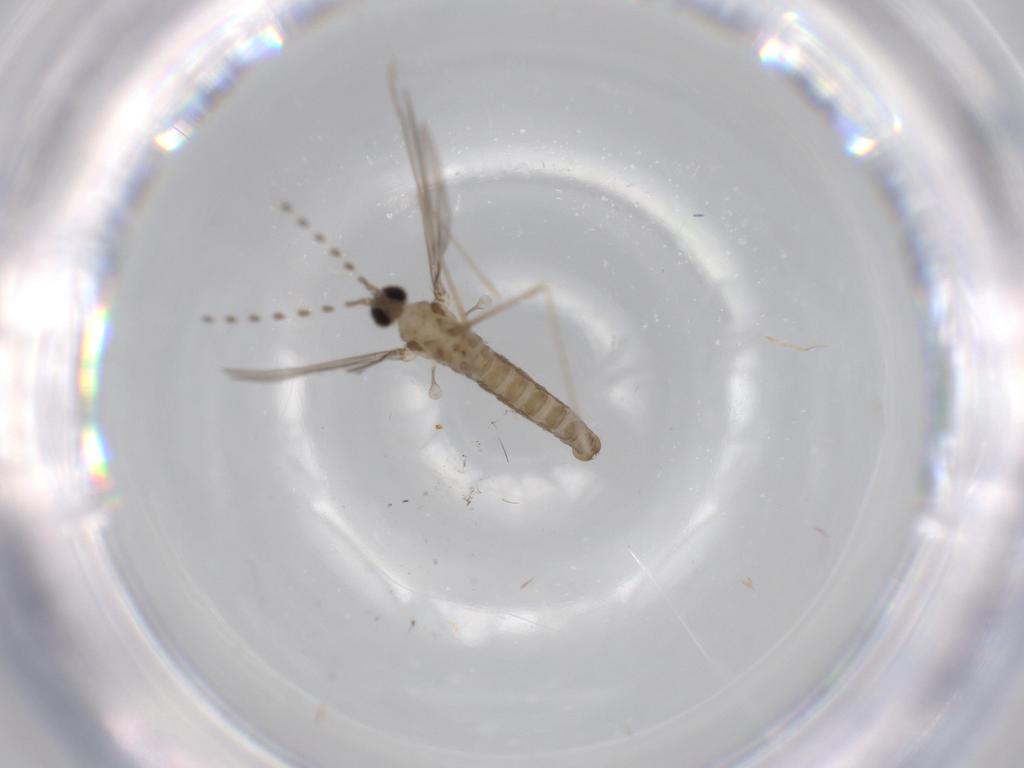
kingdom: Animalia
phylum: Arthropoda
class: Insecta
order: Diptera
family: Cecidomyiidae
